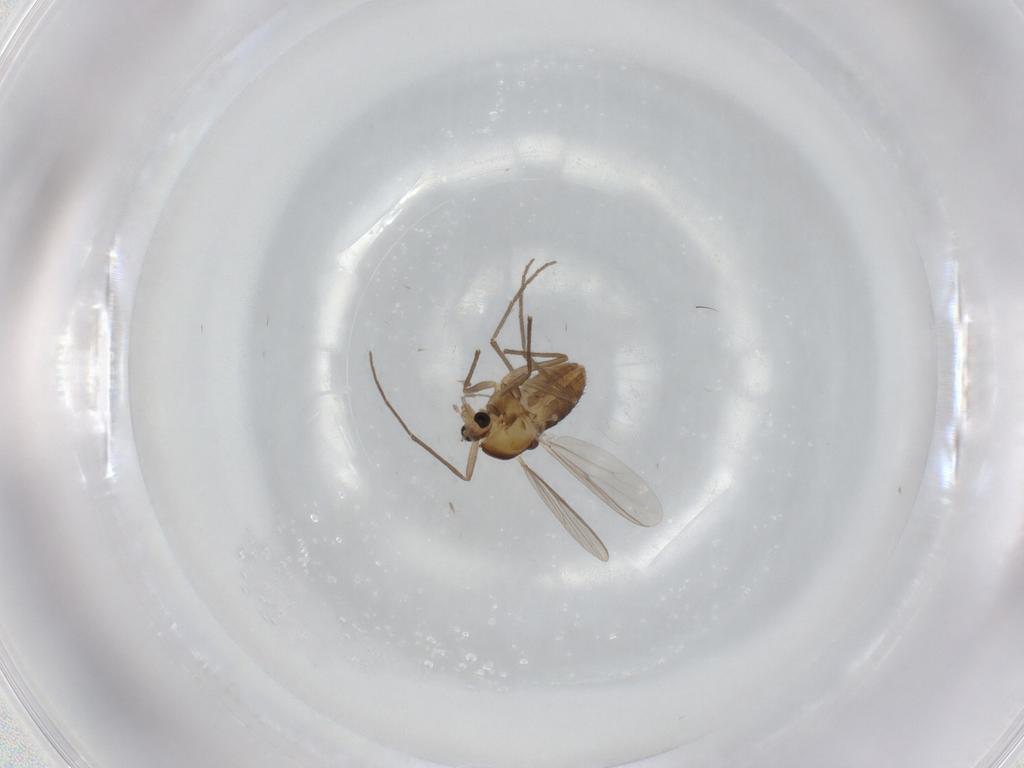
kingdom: Animalia
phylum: Arthropoda
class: Insecta
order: Diptera
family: Chironomidae
